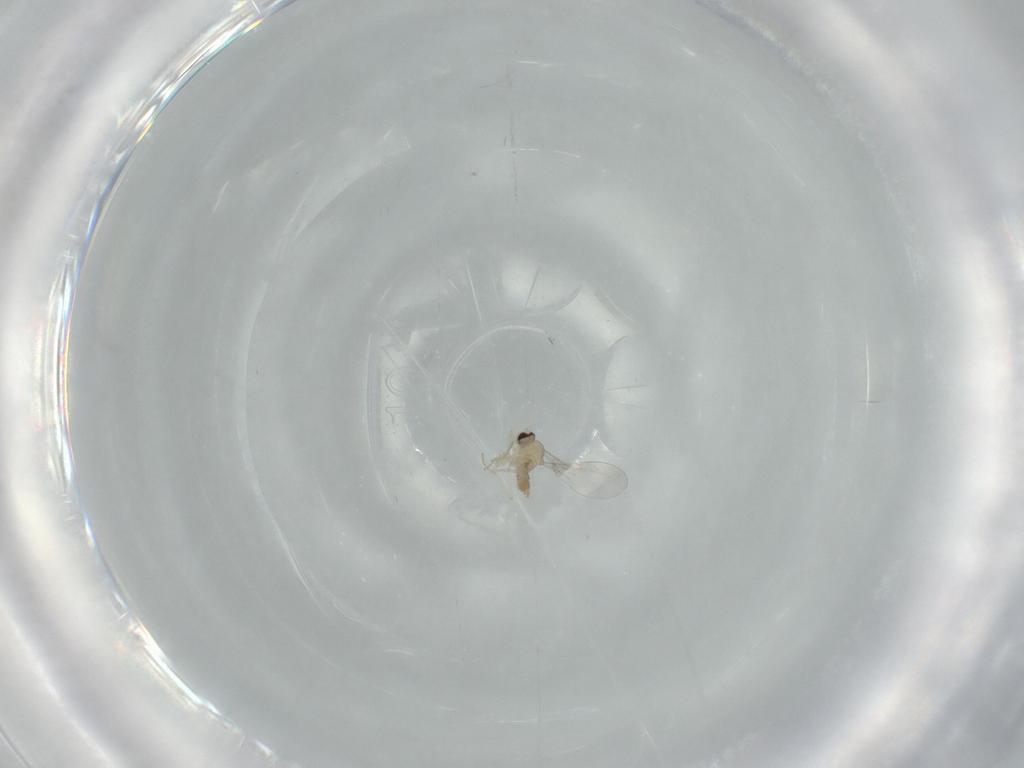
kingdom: Animalia
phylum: Arthropoda
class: Insecta
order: Diptera
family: Cecidomyiidae
